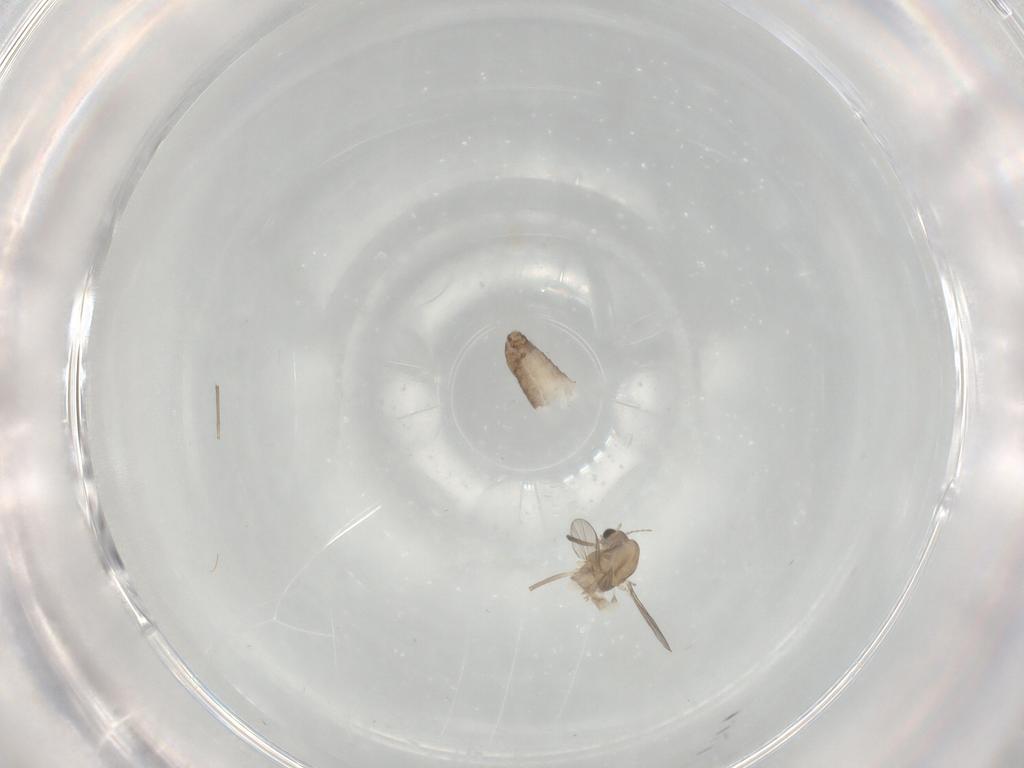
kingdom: Animalia
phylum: Arthropoda
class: Insecta
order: Diptera
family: Chironomidae
